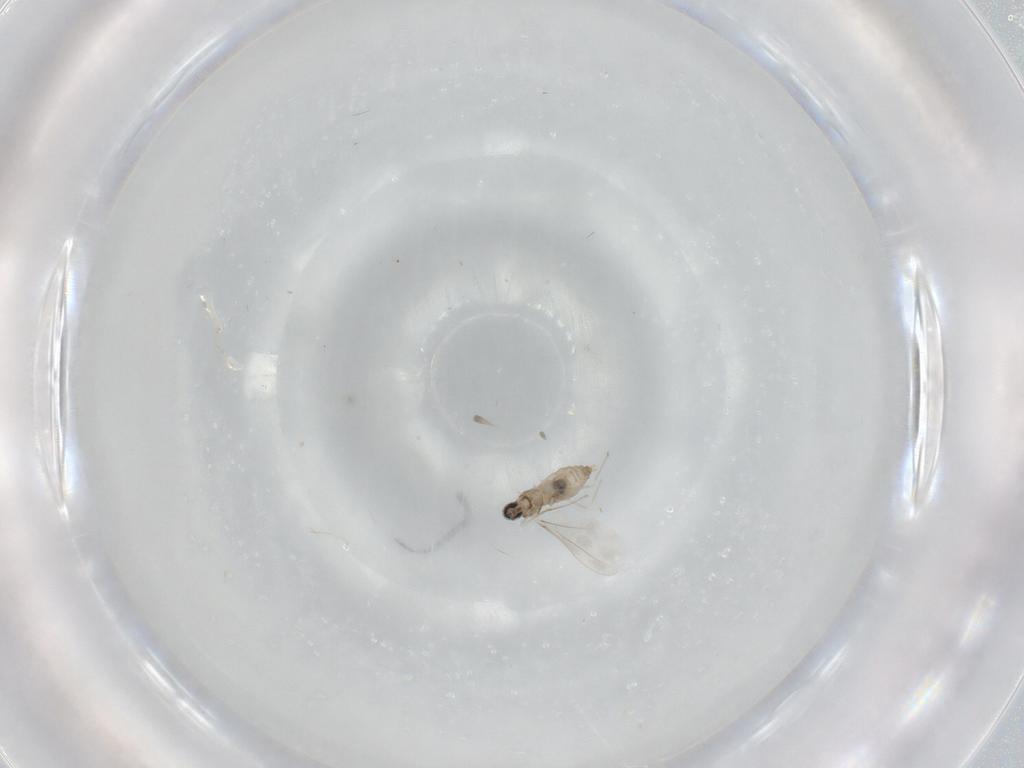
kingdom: Animalia
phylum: Arthropoda
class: Insecta
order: Diptera
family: Cecidomyiidae
